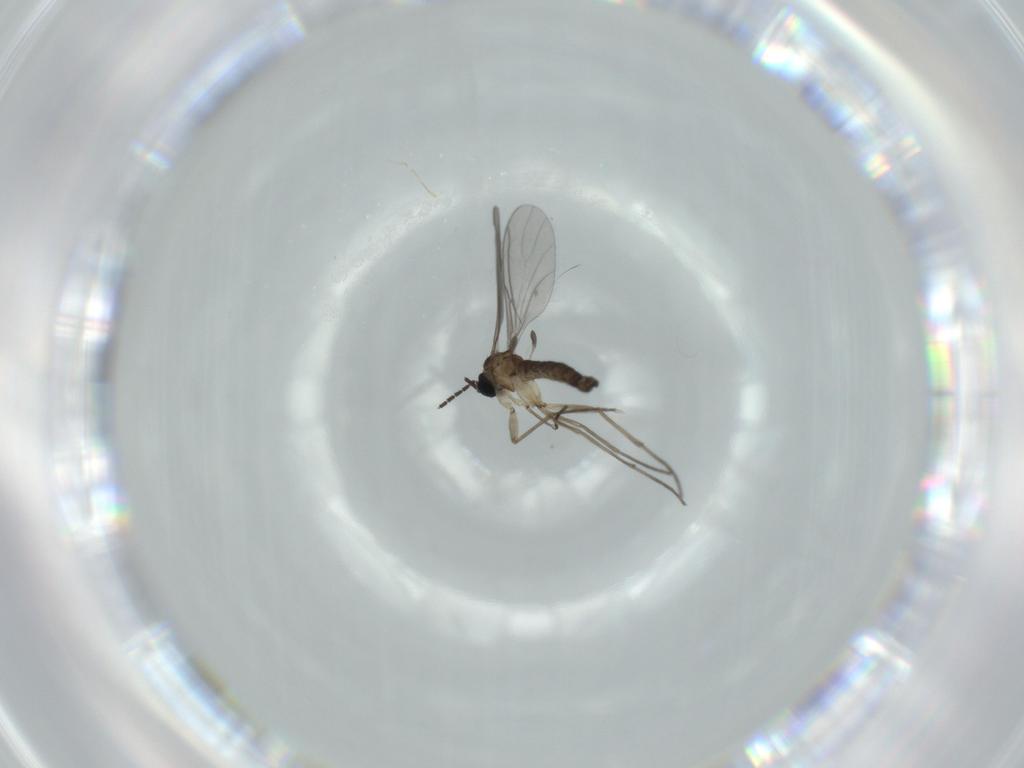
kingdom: Animalia
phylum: Arthropoda
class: Insecta
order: Diptera
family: Sciaridae
